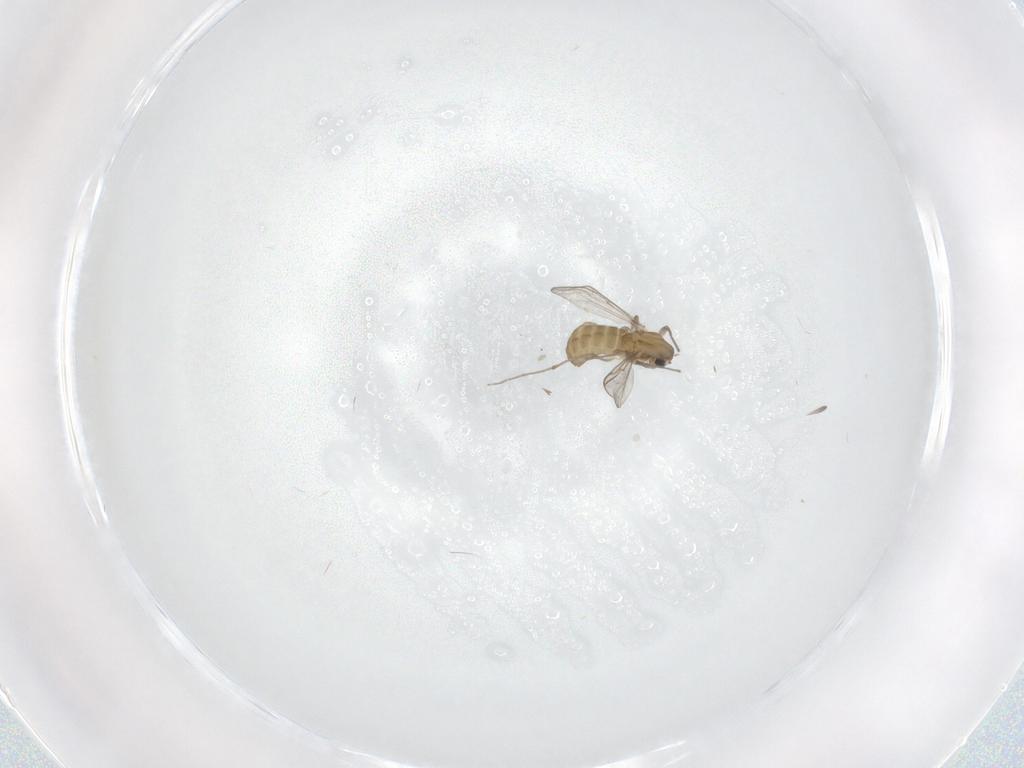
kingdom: Animalia
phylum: Arthropoda
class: Insecta
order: Diptera
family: Chironomidae
